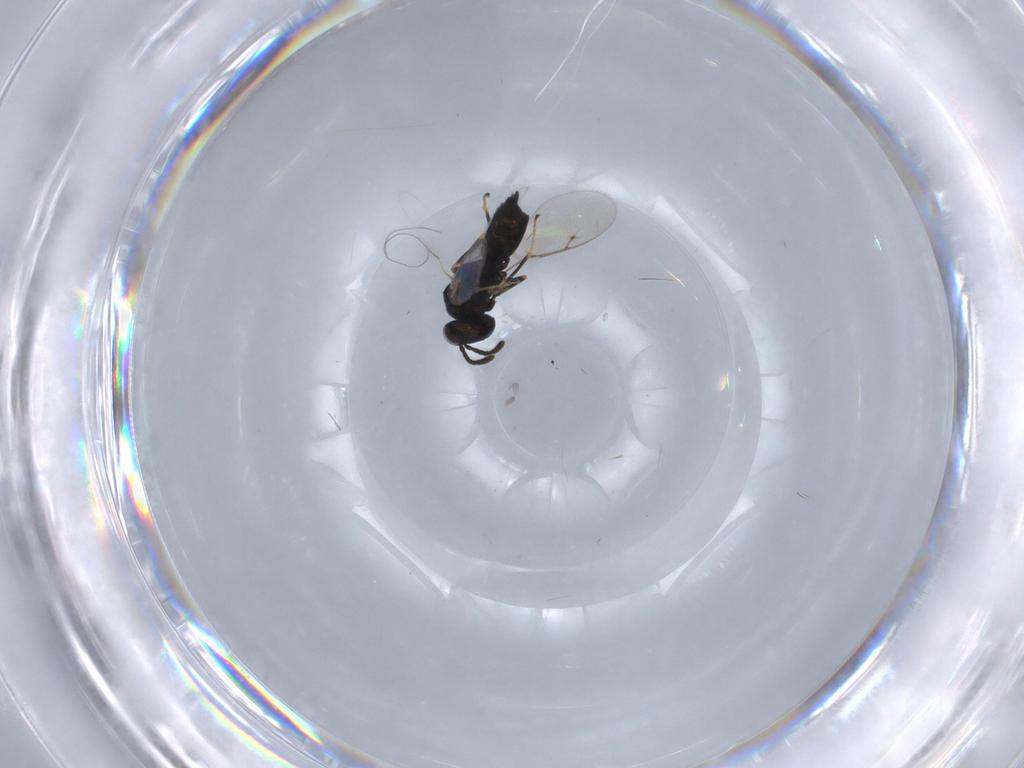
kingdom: Animalia
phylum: Arthropoda
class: Insecta
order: Hymenoptera
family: Pteromalidae
